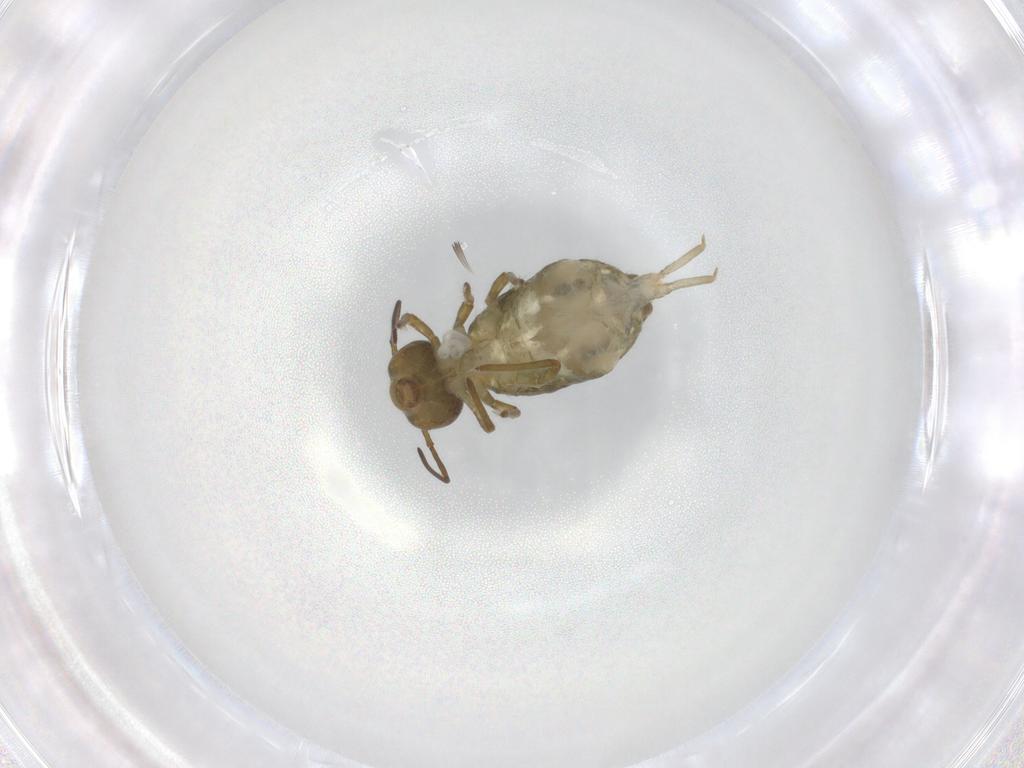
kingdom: Animalia
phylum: Arthropoda
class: Collembola
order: Symphypleona
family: Sminthuridae
